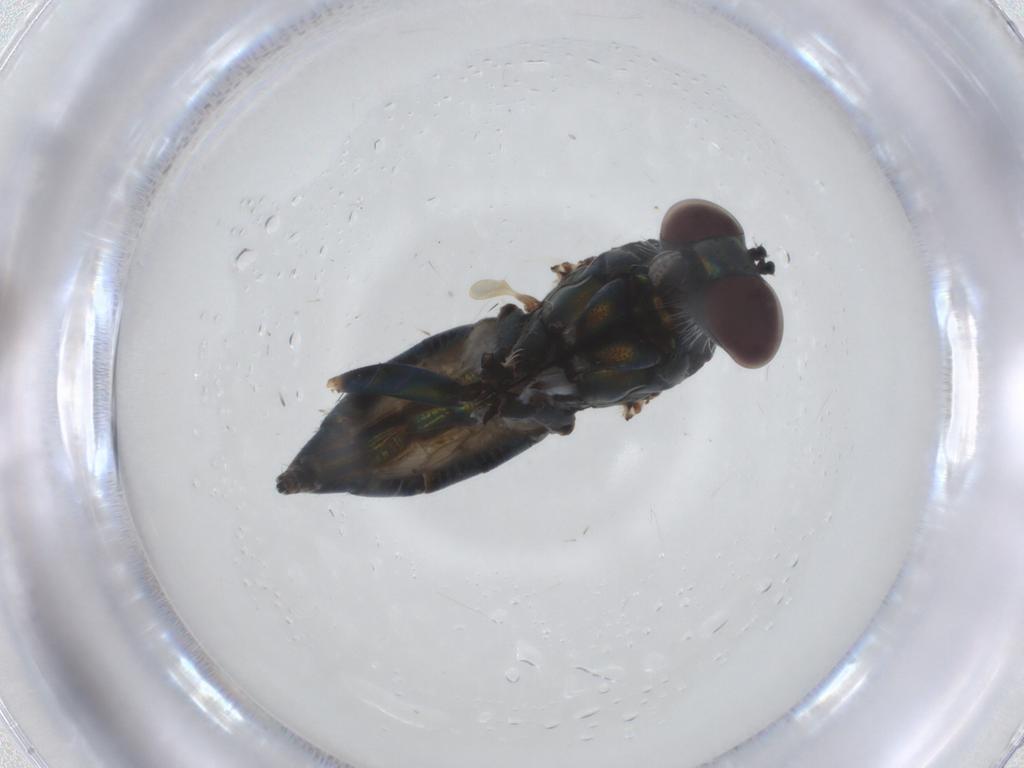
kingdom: Animalia
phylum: Arthropoda
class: Insecta
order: Diptera
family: Dolichopodidae
